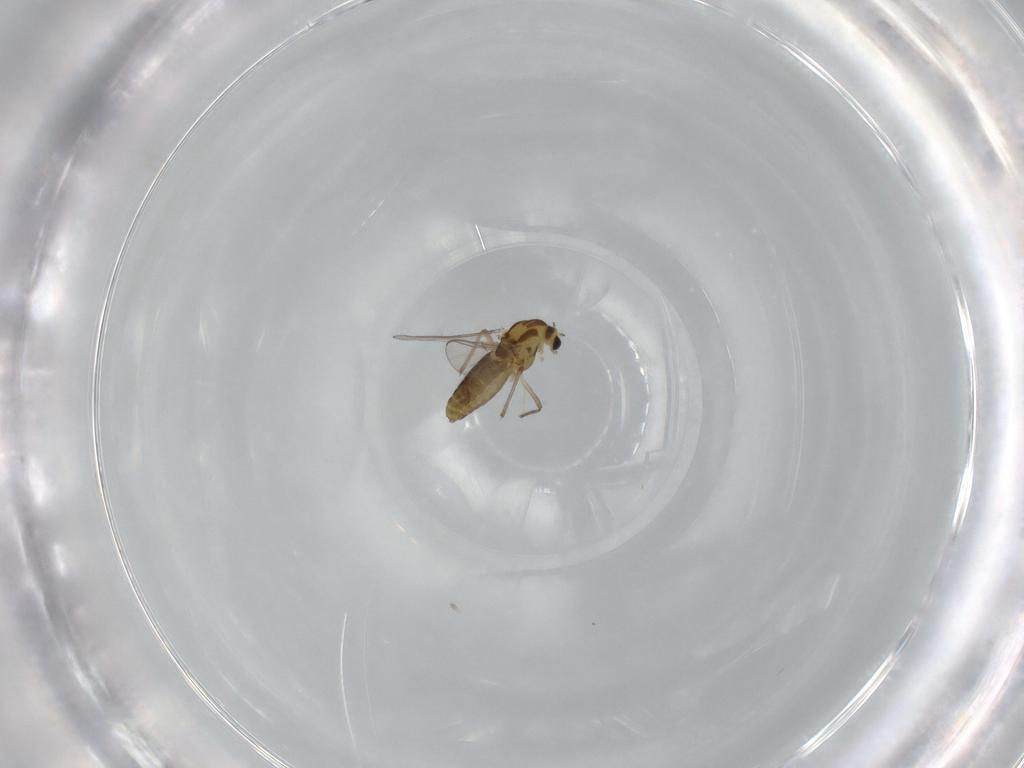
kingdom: Animalia
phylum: Arthropoda
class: Insecta
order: Diptera
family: Chironomidae
